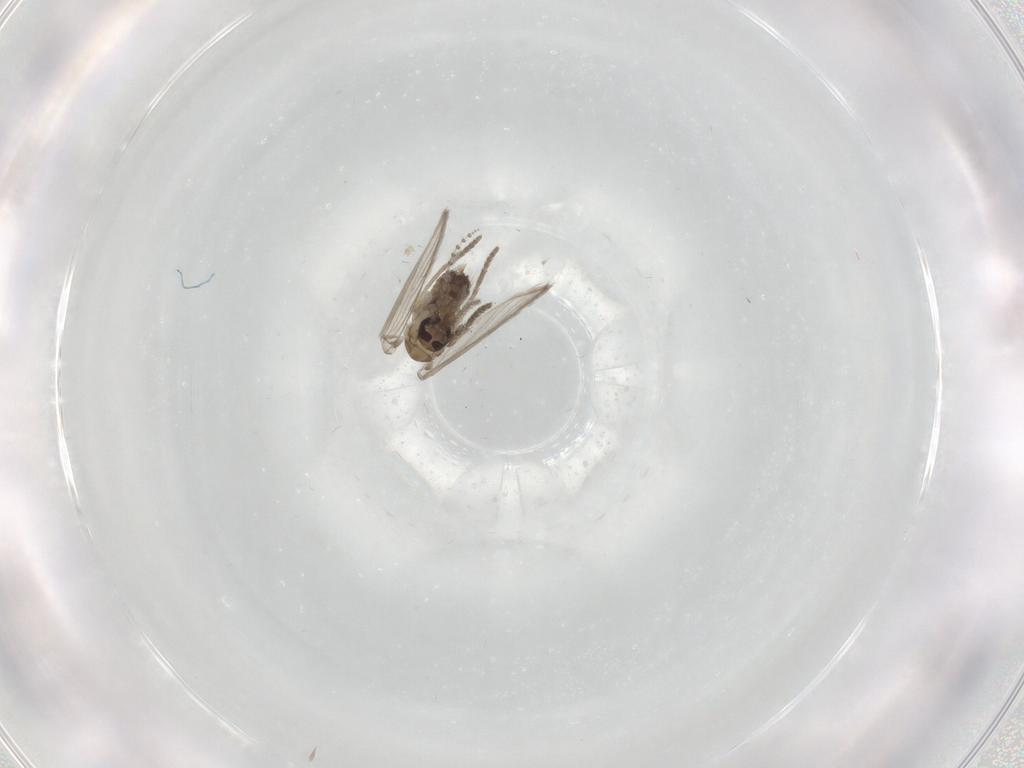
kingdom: Animalia
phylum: Arthropoda
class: Insecta
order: Diptera
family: Psychodidae
